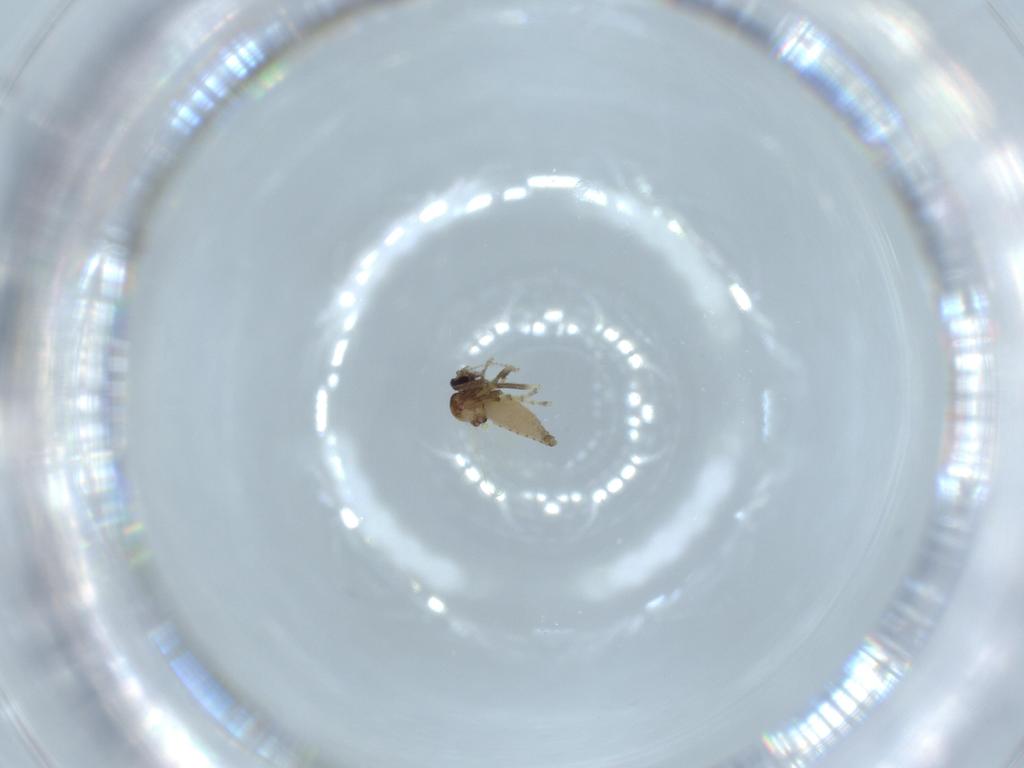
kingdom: Animalia
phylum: Arthropoda
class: Insecta
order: Diptera
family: Ceratopogonidae
